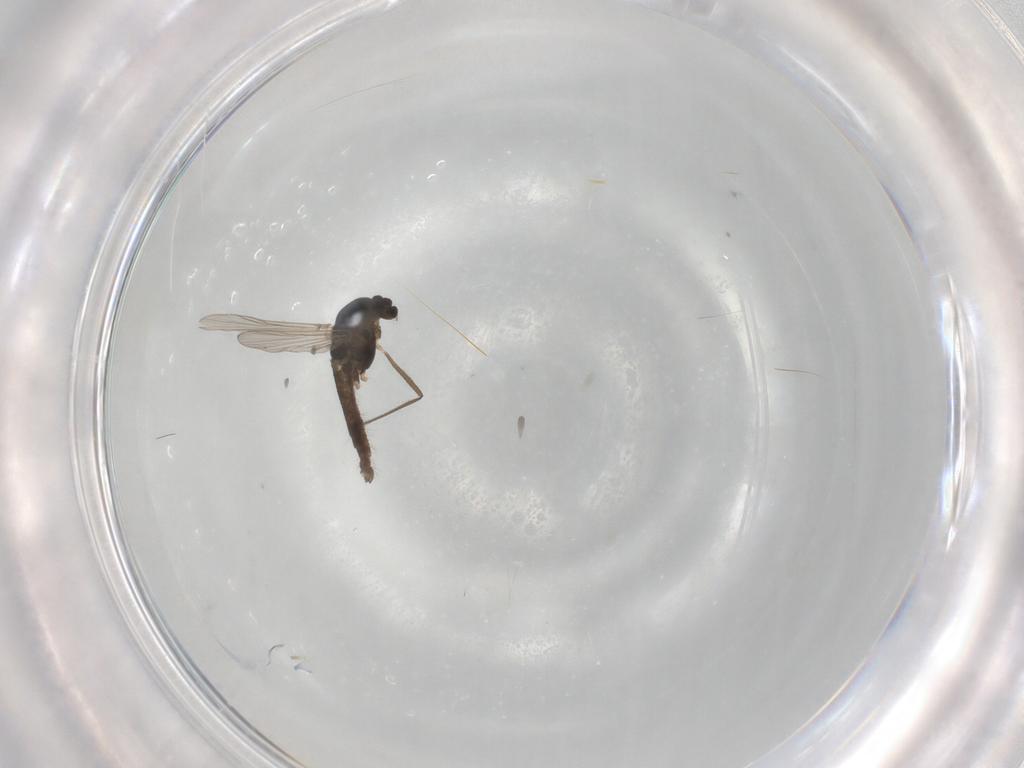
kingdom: Animalia
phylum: Arthropoda
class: Insecta
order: Diptera
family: Chironomidae
